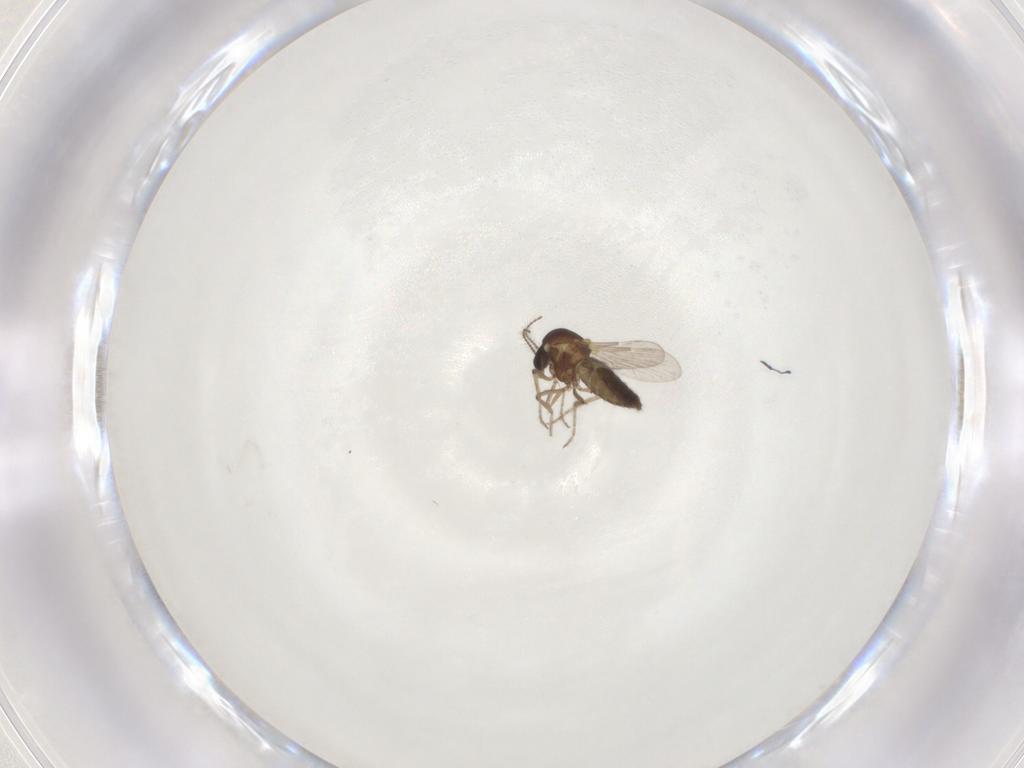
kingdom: Animalia
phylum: Arthropoda
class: Insecta
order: Diptera
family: Ceratopogonidae
